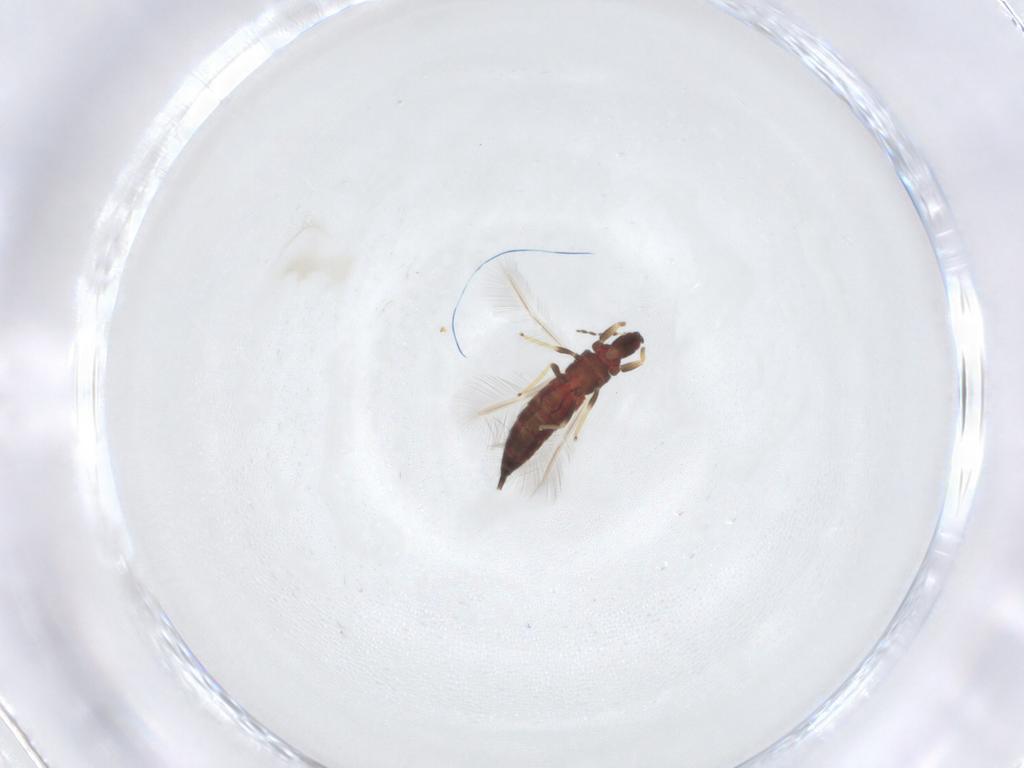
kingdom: Animalia
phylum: Arthropoda
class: Insecta
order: Thysanoptera
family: Phlaeothripidae
